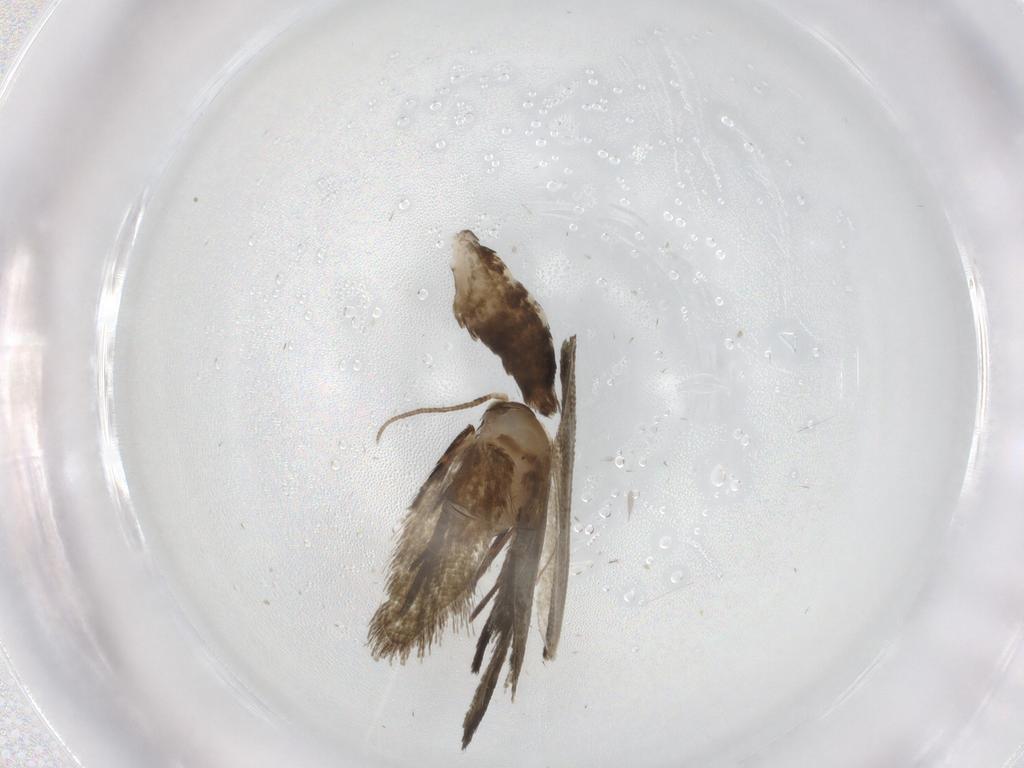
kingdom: Animalia
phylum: Arthropoda
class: Insecta
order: Lepidoptera
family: Crambidae
